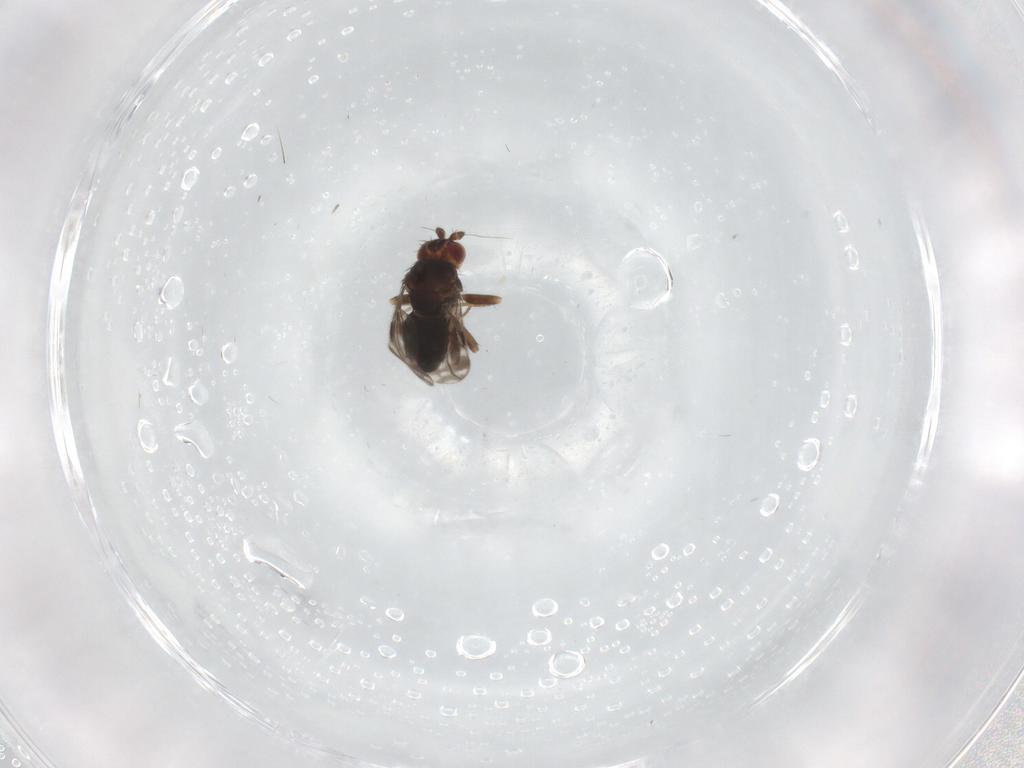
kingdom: Animalia
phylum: Arthropoda
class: Insecta
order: Diptera
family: Sphaeroceridae
